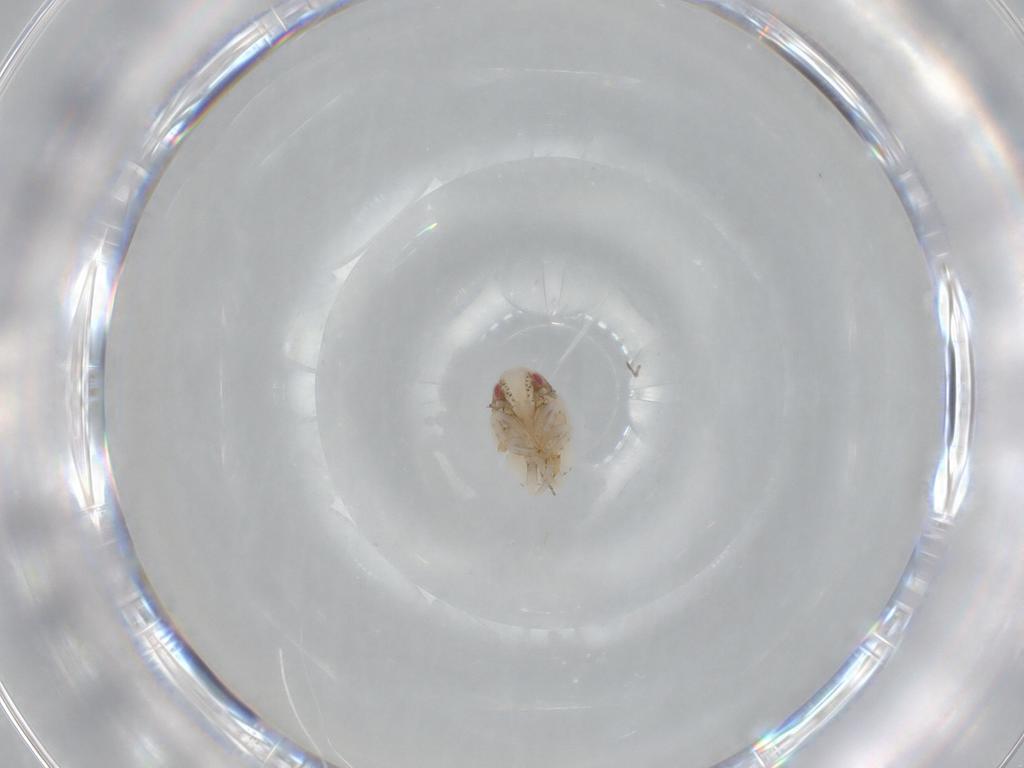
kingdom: Animalia
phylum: Arthropoda
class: Insecta
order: Hemiptera
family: Acanaloniidae
